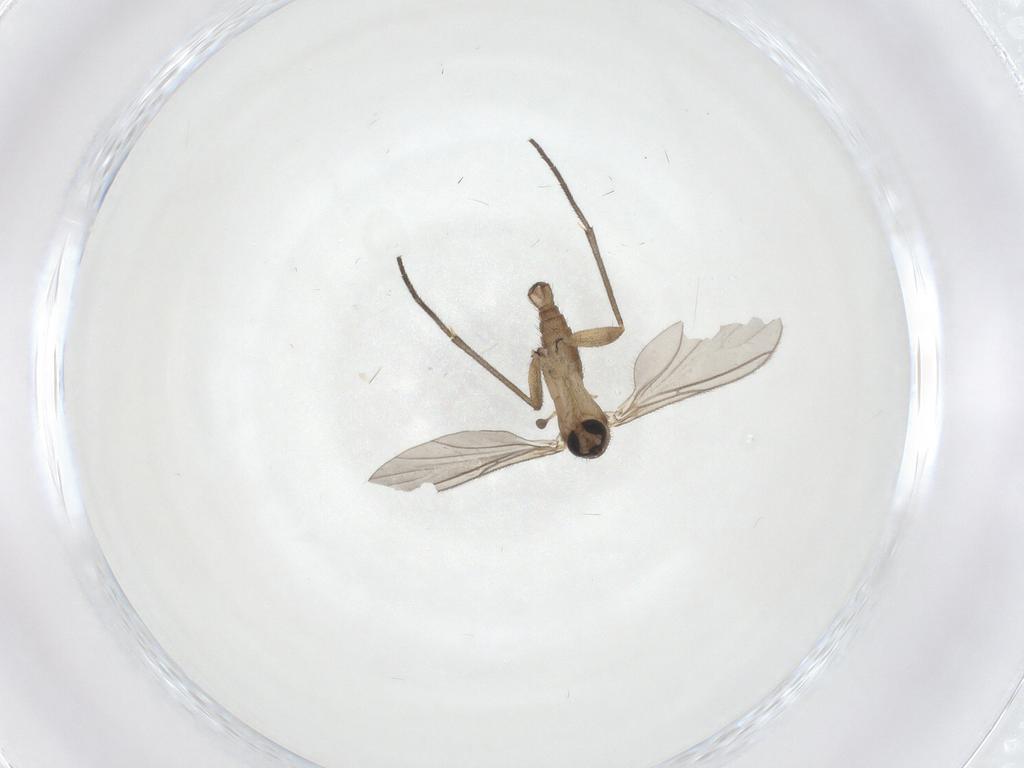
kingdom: Animalia
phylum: Arthropoda
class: Insecta
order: Diptera
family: Sciaridae
